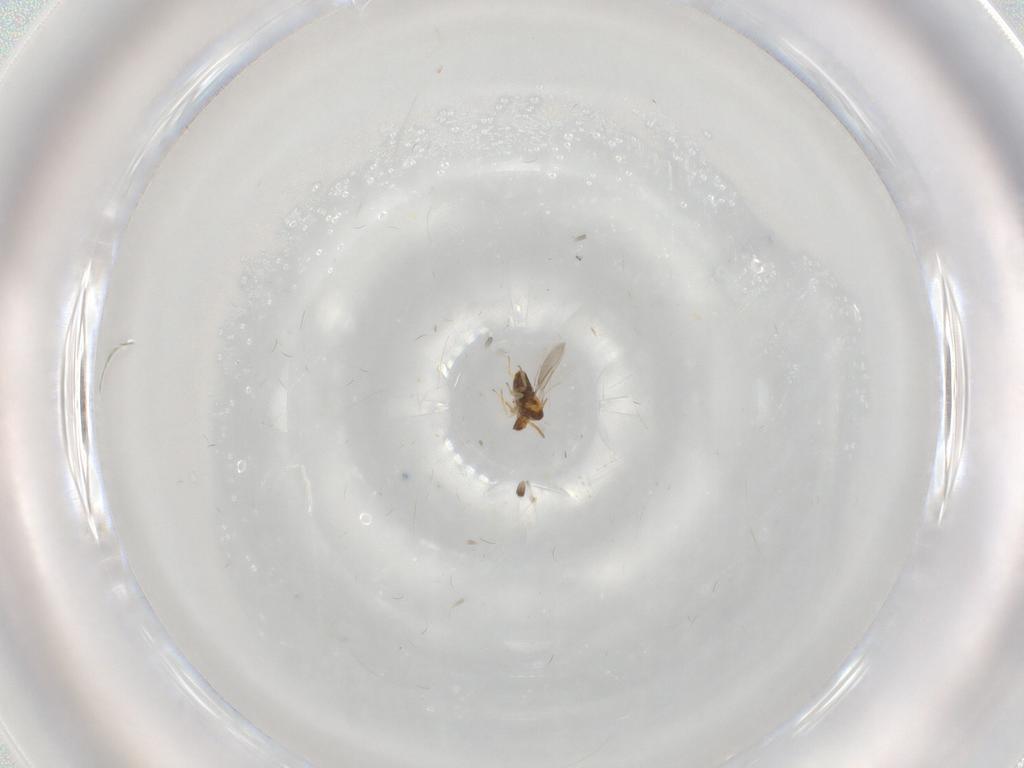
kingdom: Animalia
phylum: Arthropoda
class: Insecta
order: Hymenoptera
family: Aphelinidae
